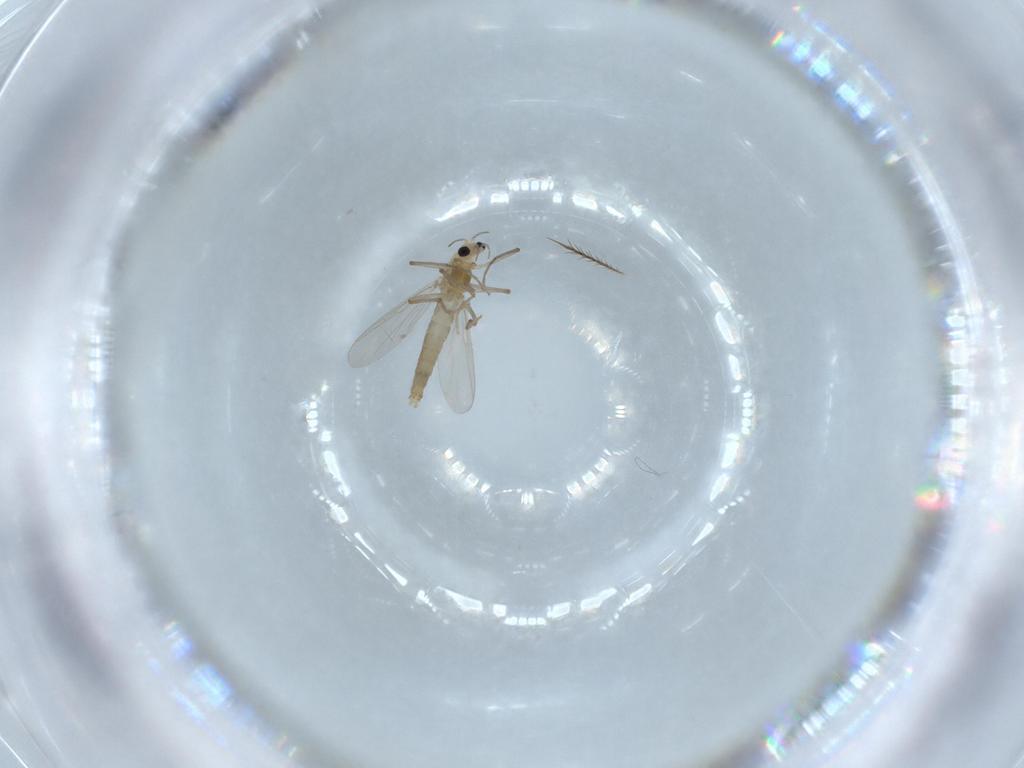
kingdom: Animalia
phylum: Arthropoda
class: Insecta
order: Diptera
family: Chironomidae
